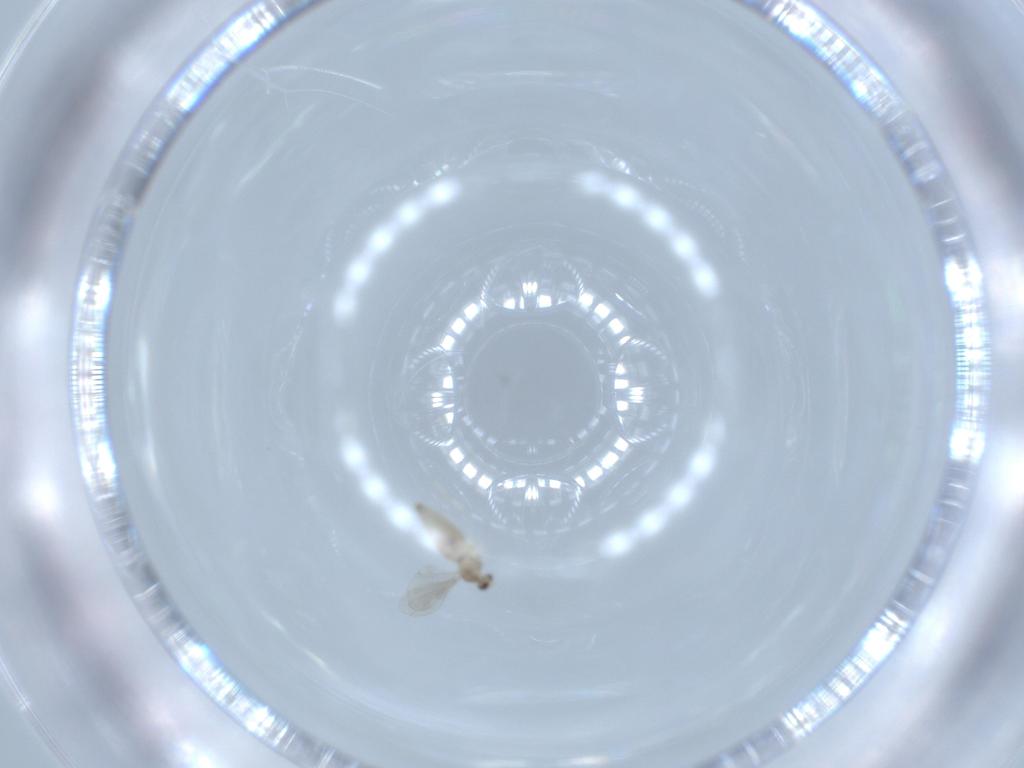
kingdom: Animalia
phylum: Arthropoda
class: Insecta
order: Diptera
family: Cecidomyiidae
